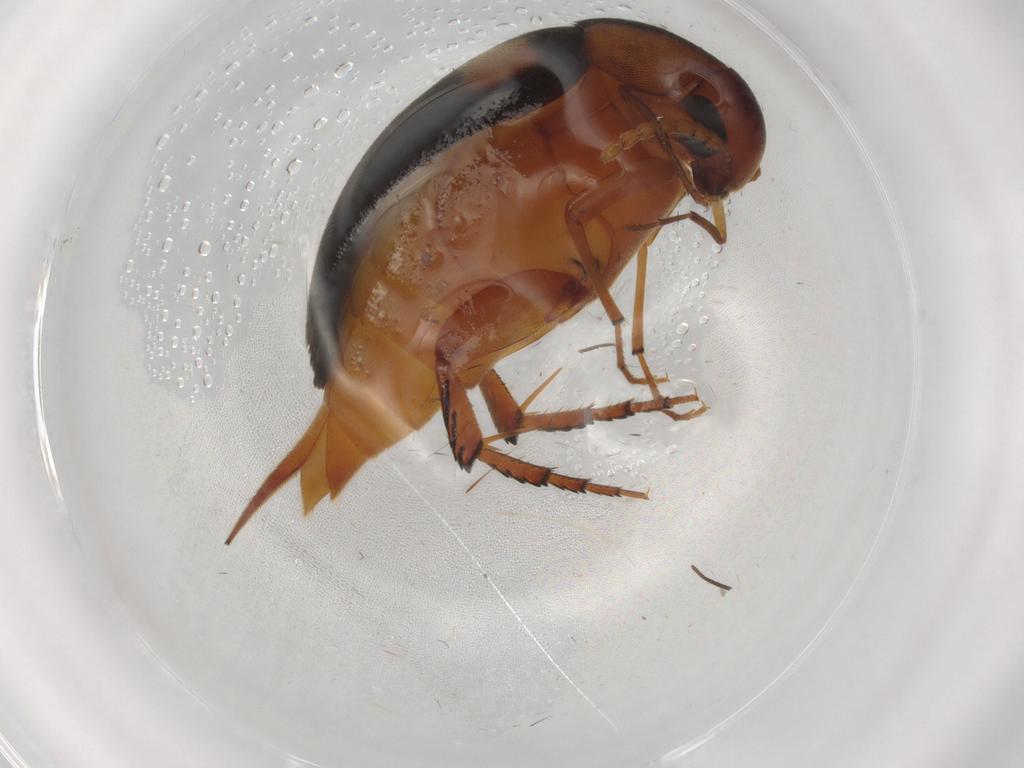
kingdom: Animalia
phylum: Arthropoda
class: Insecta
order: Coleoptera
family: Mordellidae
